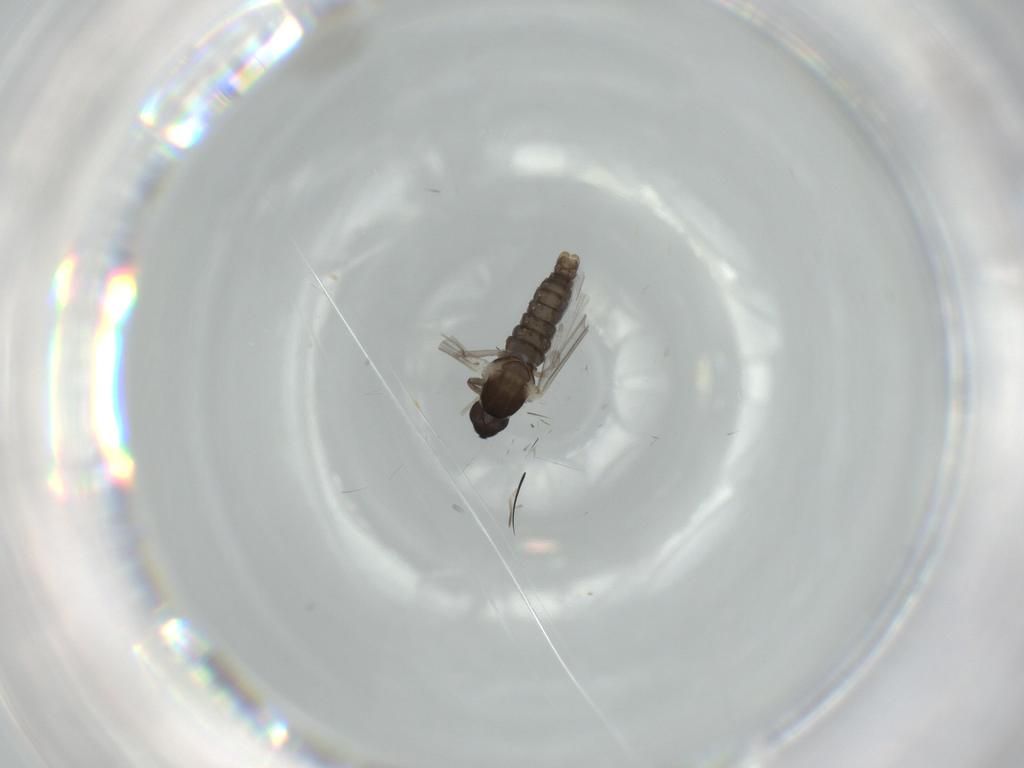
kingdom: Animalia
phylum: Arthropoda
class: Insecta
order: Diptera
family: Cecidomyiidae
